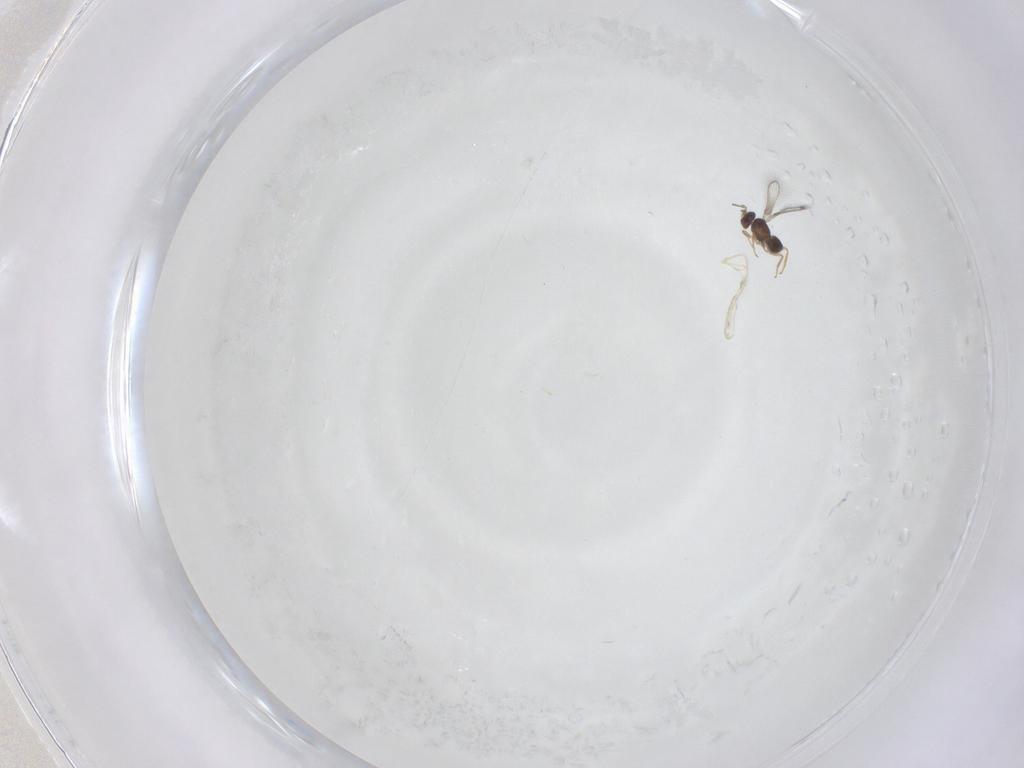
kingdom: Animalia
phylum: Arthropoda
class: Insecta
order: Hymenoptera
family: Mymaridae
